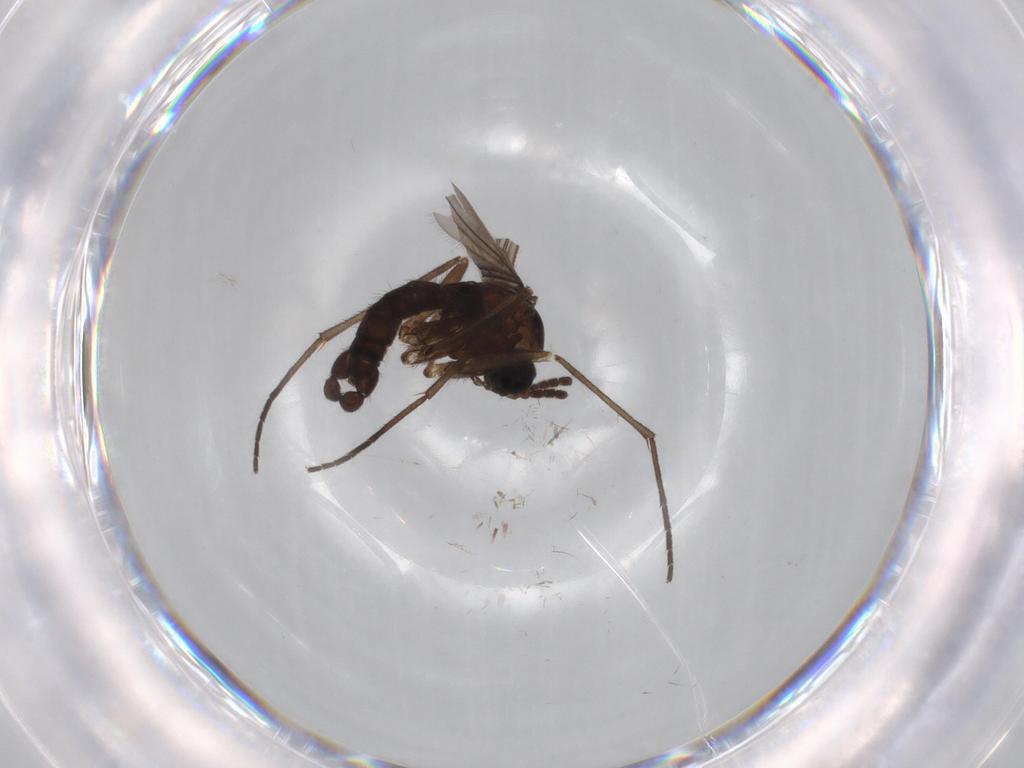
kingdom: Animalia
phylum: Arthropoda
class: Insecta
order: Diptera
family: Sciaridae
